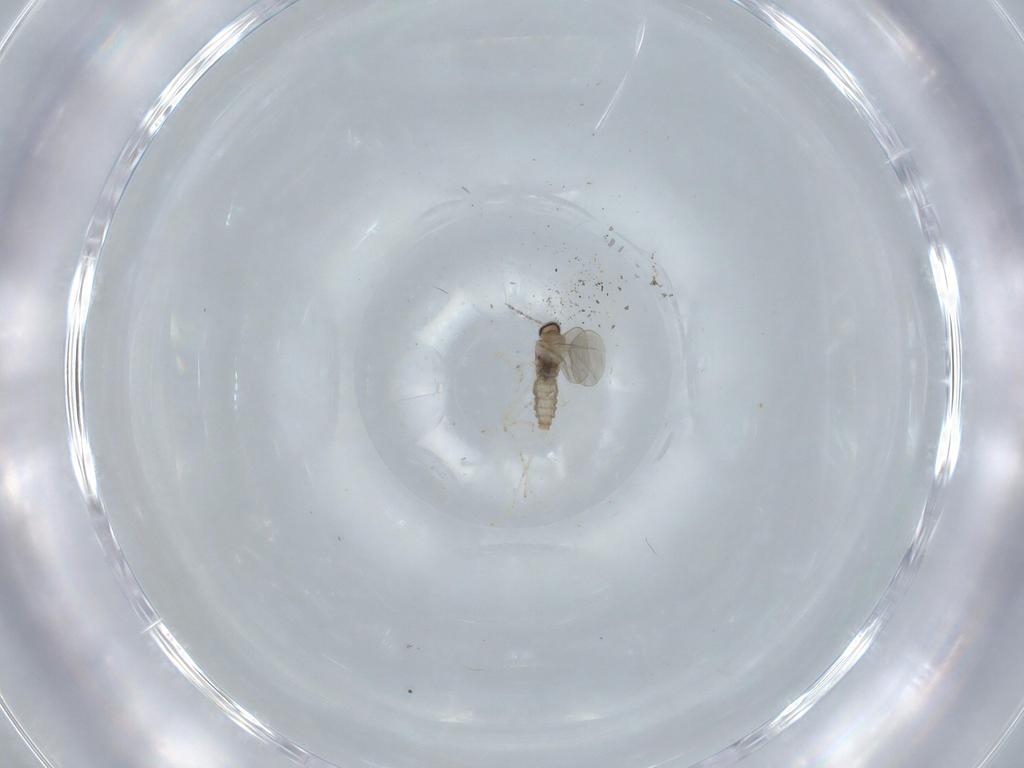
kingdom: Animalia
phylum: Arthropoda
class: Insecta
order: Diptera
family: Cecidomyiidae
